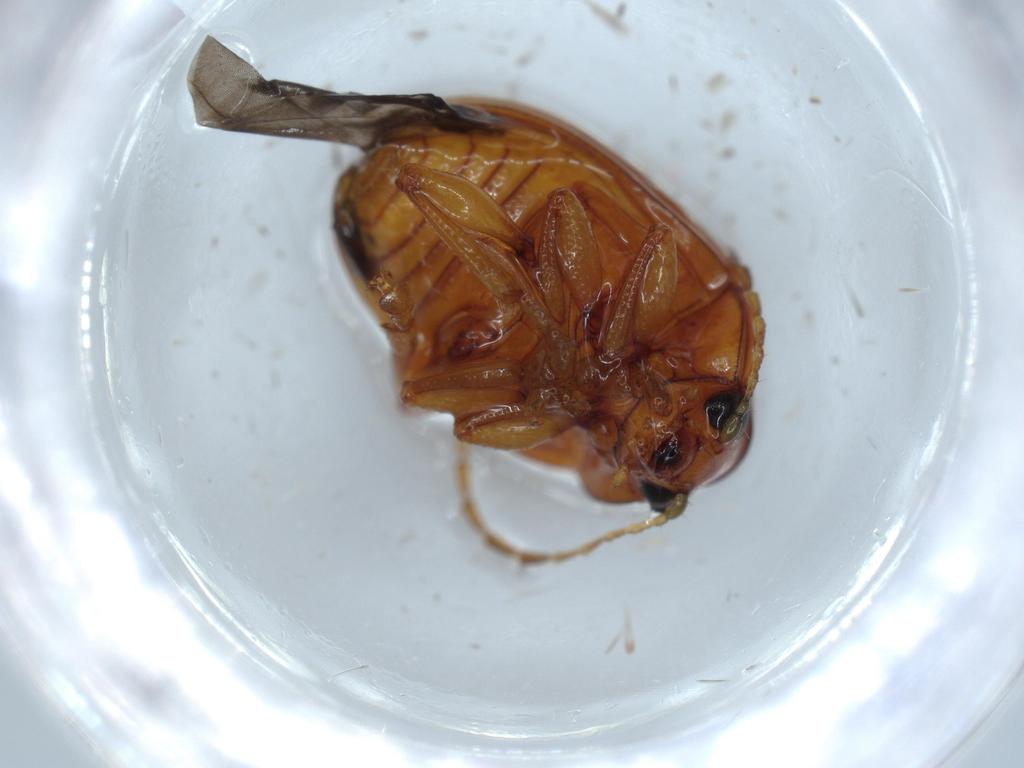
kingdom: Animalia
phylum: Arthropoda
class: Insecta
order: Coleoptera
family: Chrysomelidae
